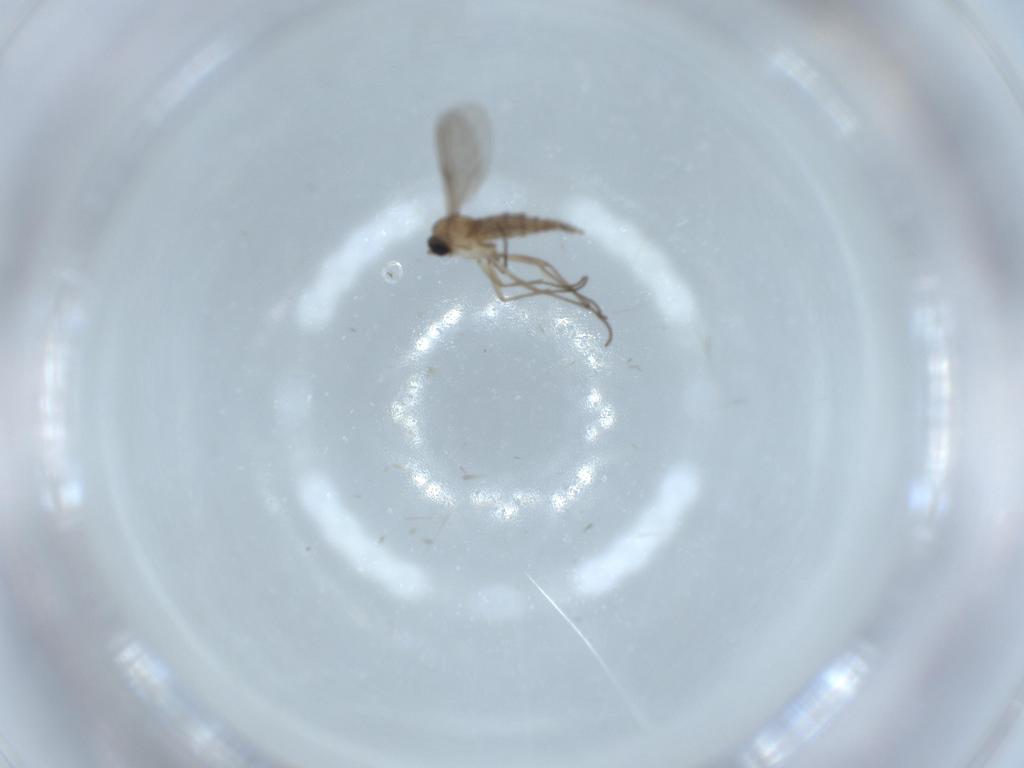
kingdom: Animalia
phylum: Arthropoda
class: Insecta
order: Diptera
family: Sciaridae
